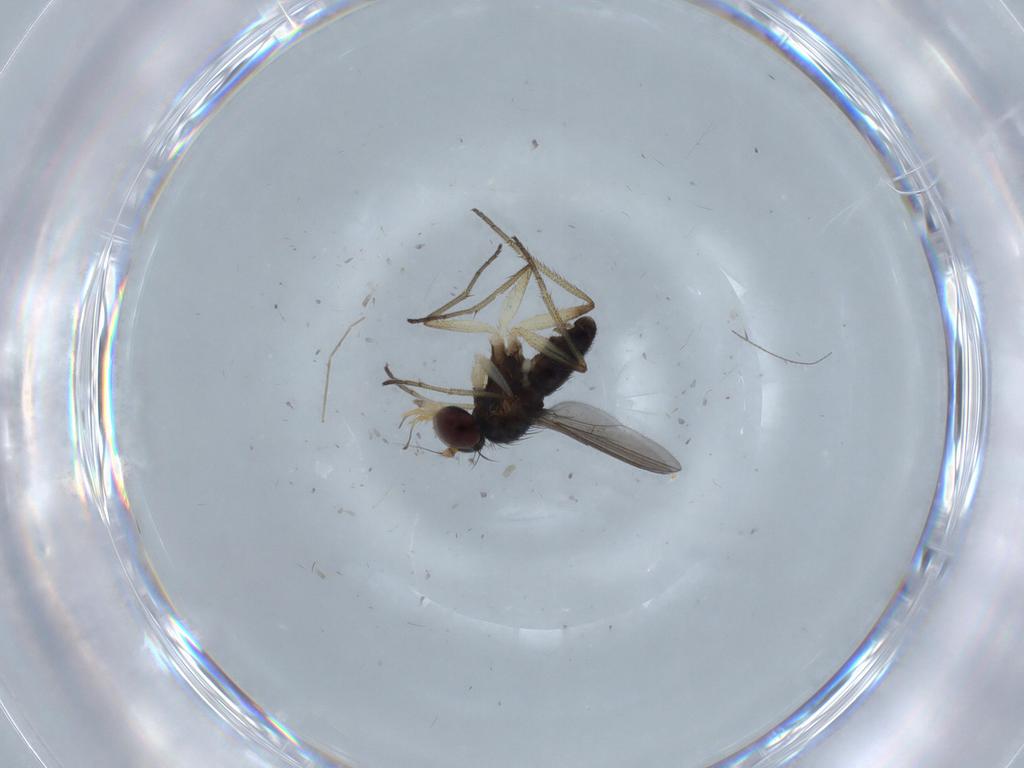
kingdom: Animalia
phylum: Arthropoda
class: Insecta
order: Diptera
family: Dolichopodidae
